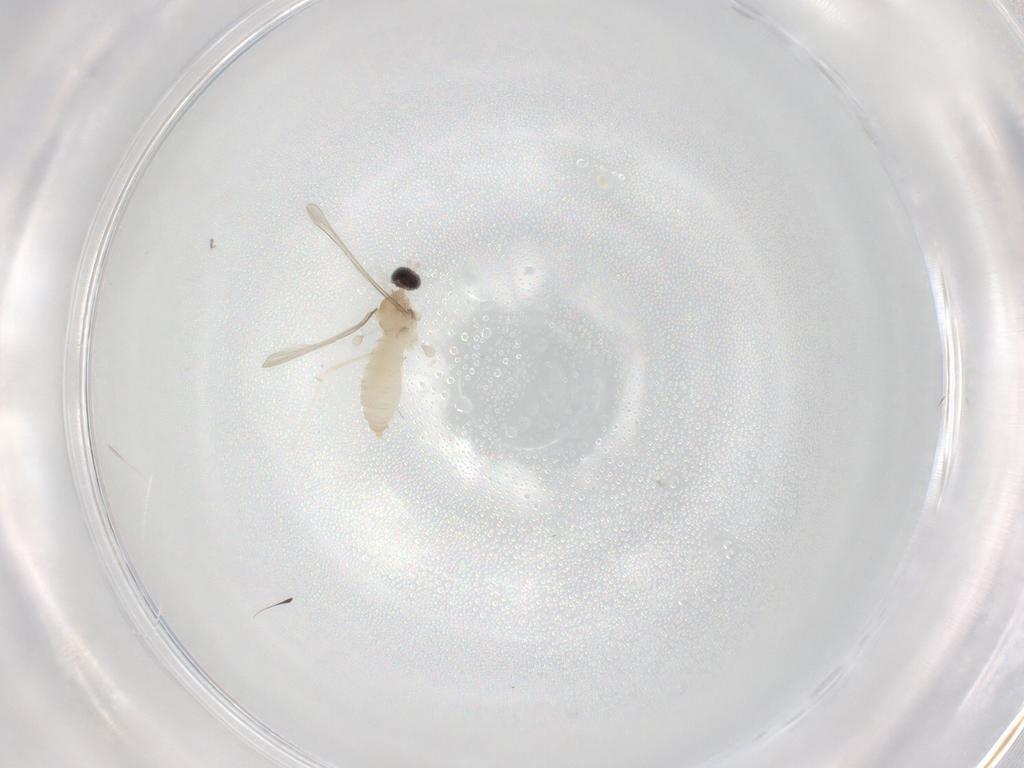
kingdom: Animalia
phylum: Arthropoda
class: Insecta
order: Diptera
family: Cecidomyiidae
